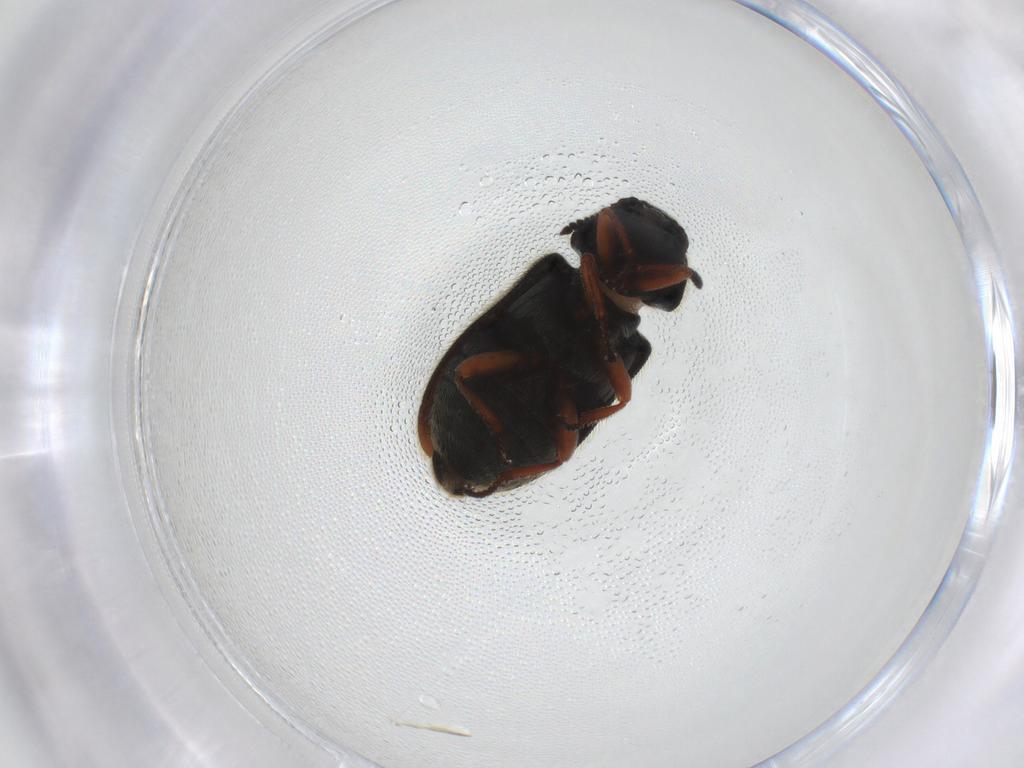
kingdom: Animalia
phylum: Arthropoda
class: Insecta
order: Coleoptera
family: Melyridae
